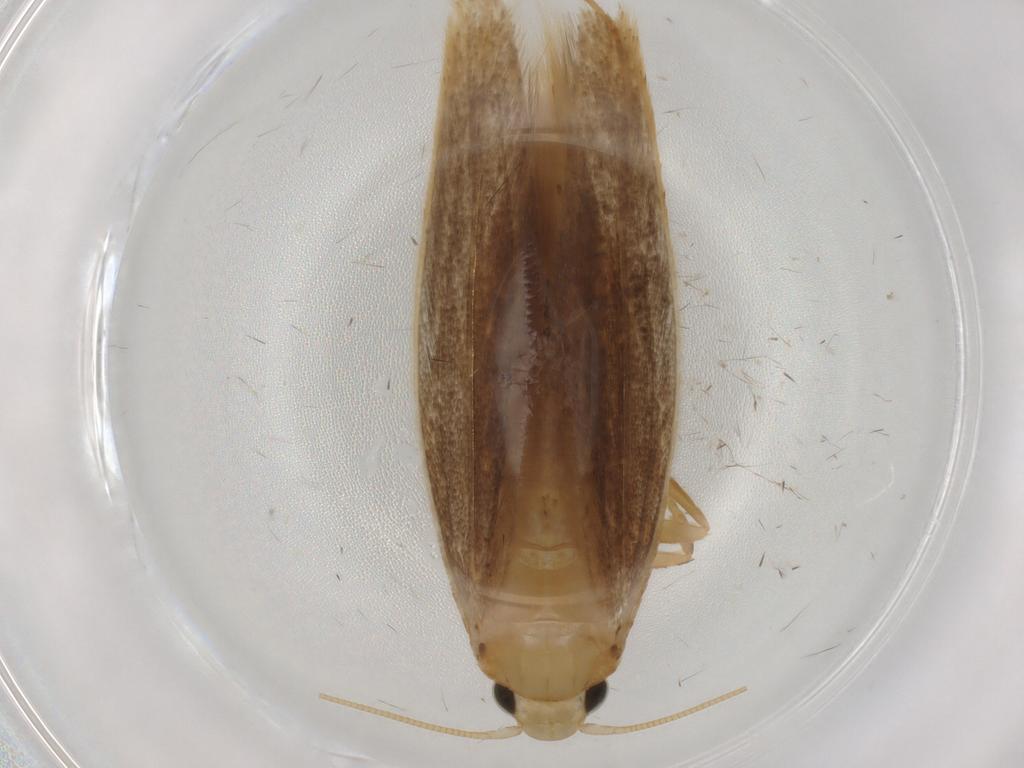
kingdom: Animalia
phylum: Arthropoda
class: Insecta
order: Lepidoptera
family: Tineidae
